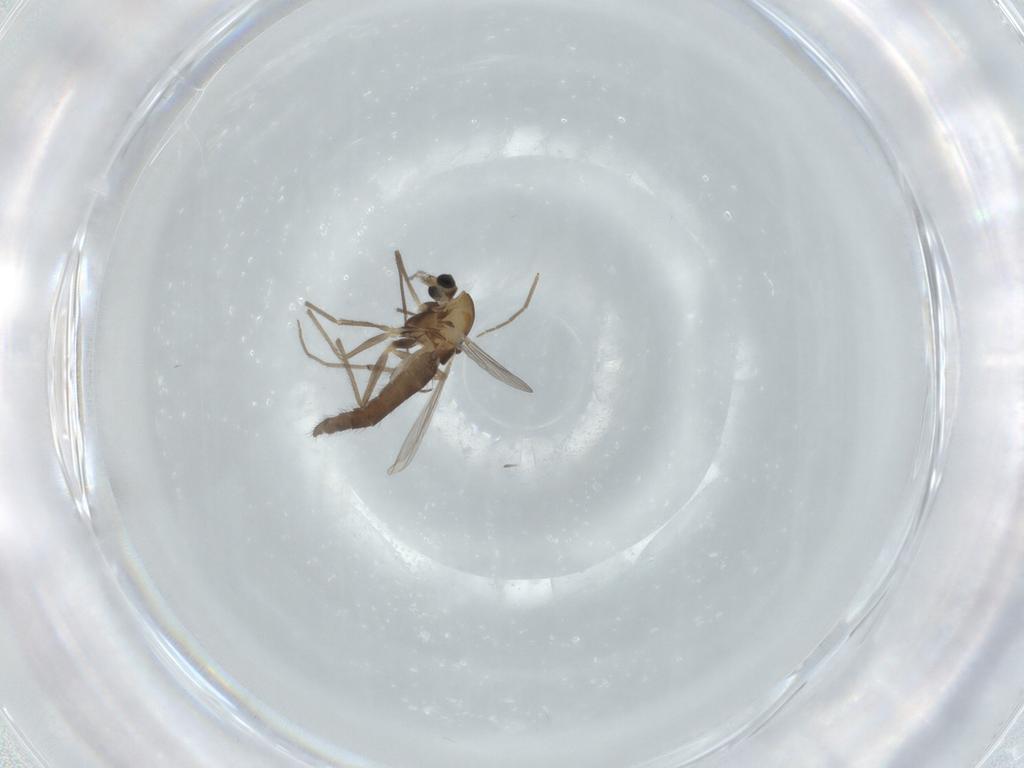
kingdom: Animalia
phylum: Arthropoda
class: Insecta
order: Diptera
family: Chironomidae
